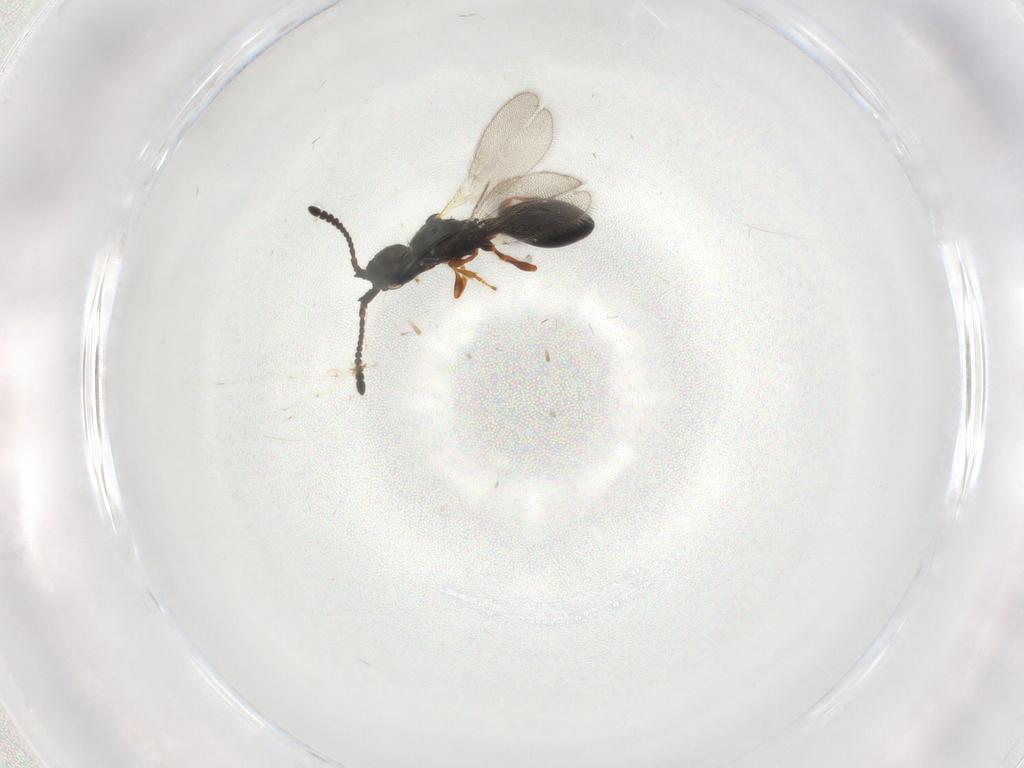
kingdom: Animalia
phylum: Arthropoda
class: Insecta
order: Hymenoptera
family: Diapriidae
